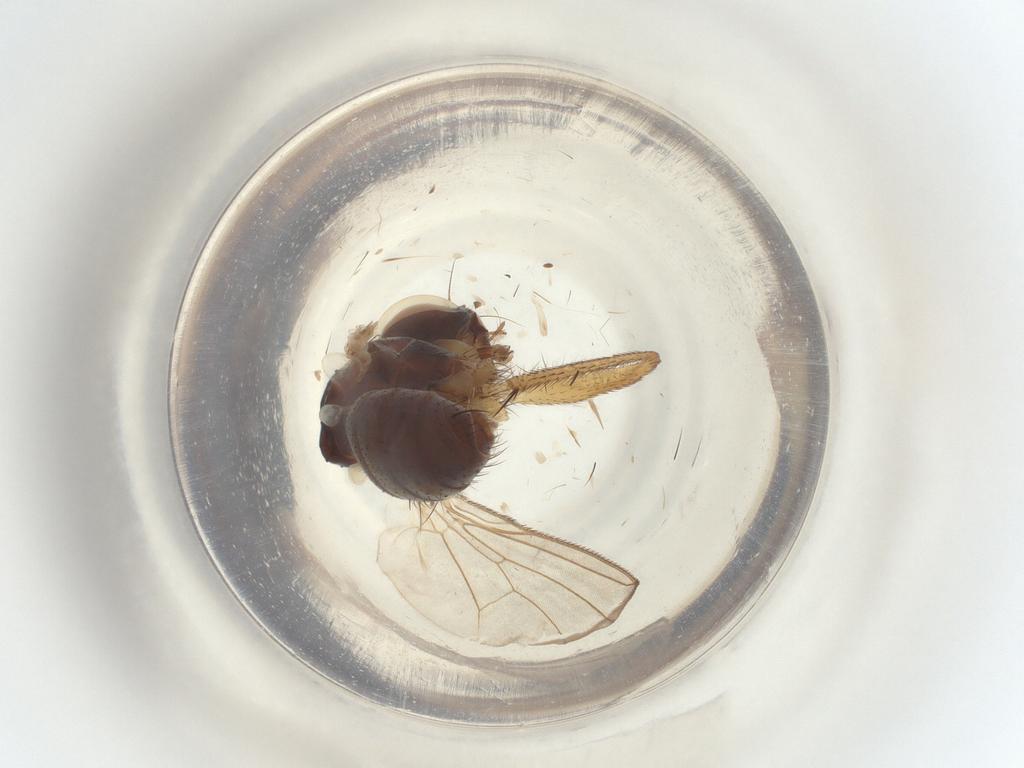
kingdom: Animalia
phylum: Arthropoda
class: Insecta
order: Diptera
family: Muscidae
